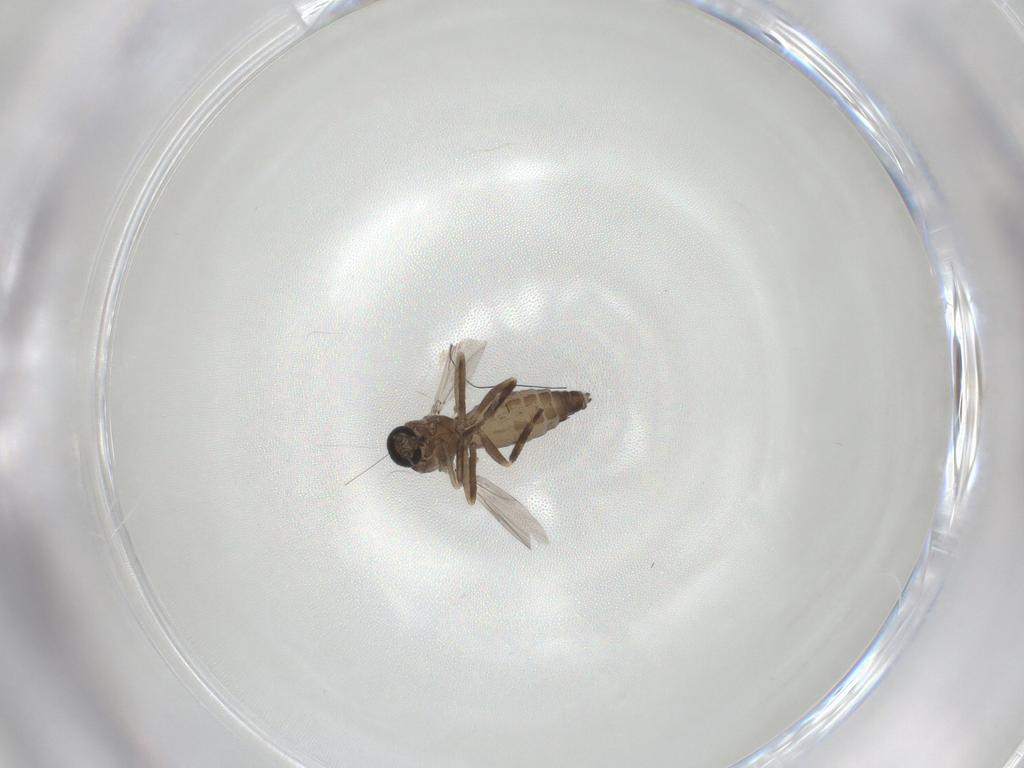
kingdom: Animalia
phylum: Arthropoda
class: Insecta
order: Diptera
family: Ceratopogonidae
